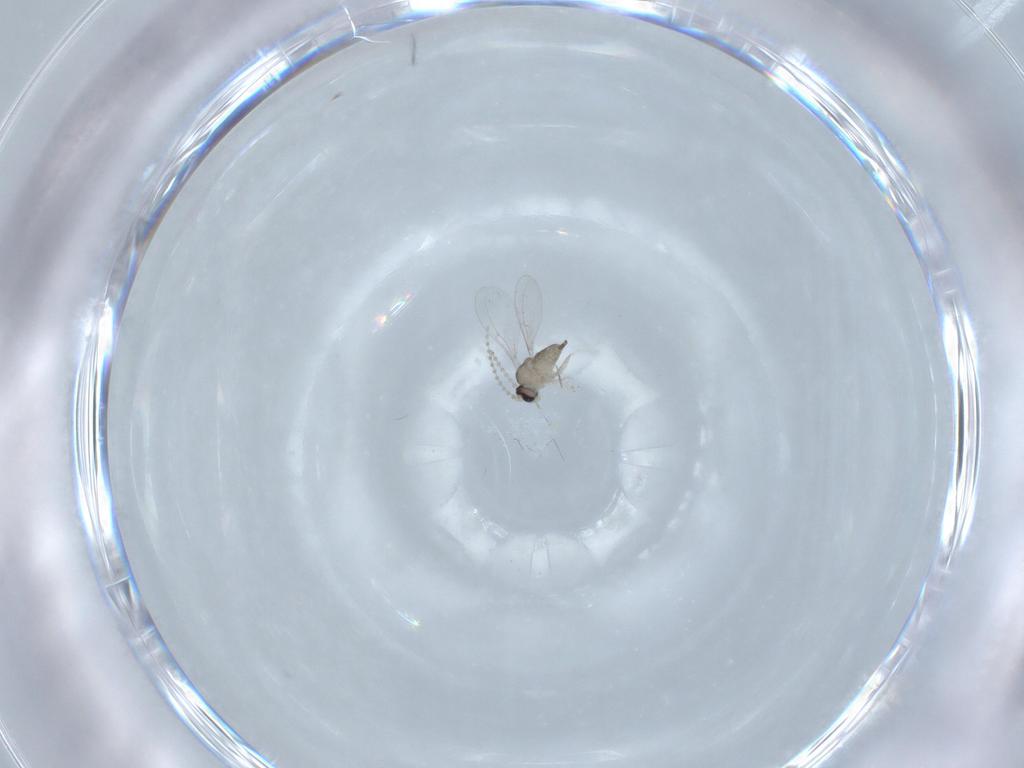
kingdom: Animalia
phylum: Arthropoda
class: Insecta
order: Diptera
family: Cecidomyiidae
